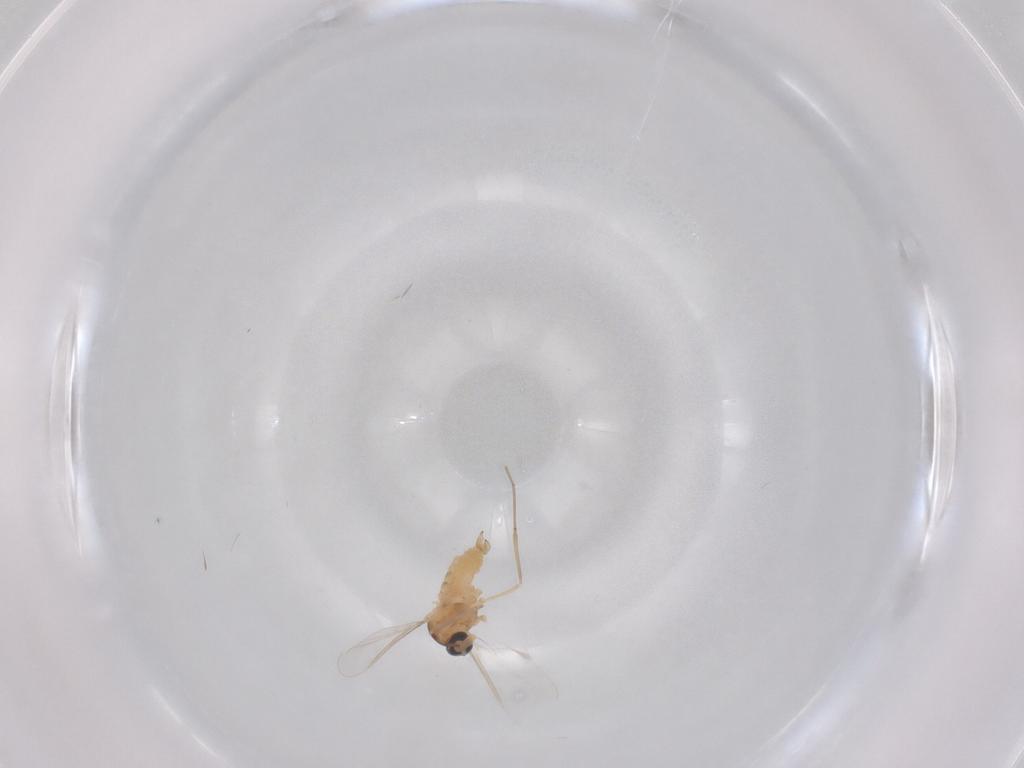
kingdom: Animalia
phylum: Arthropoda
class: Insecta
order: Diptera
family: Cecidomyiidae
